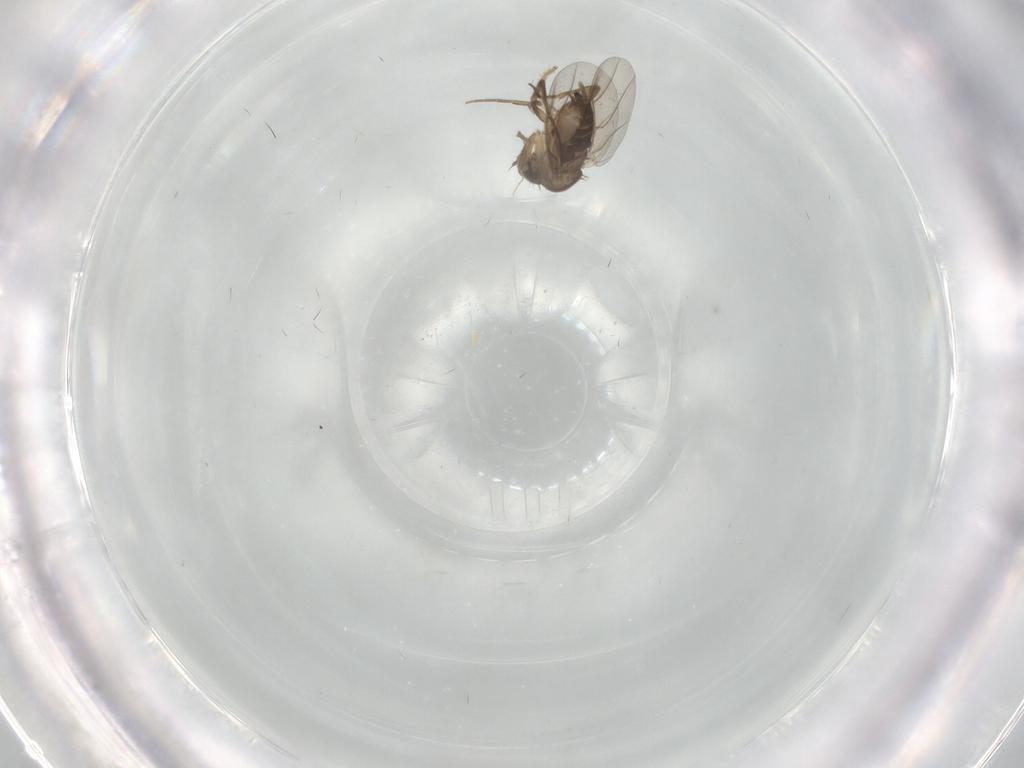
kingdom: Animalia
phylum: Arthropoda
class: Insecta
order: Diptera
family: Phoridae
